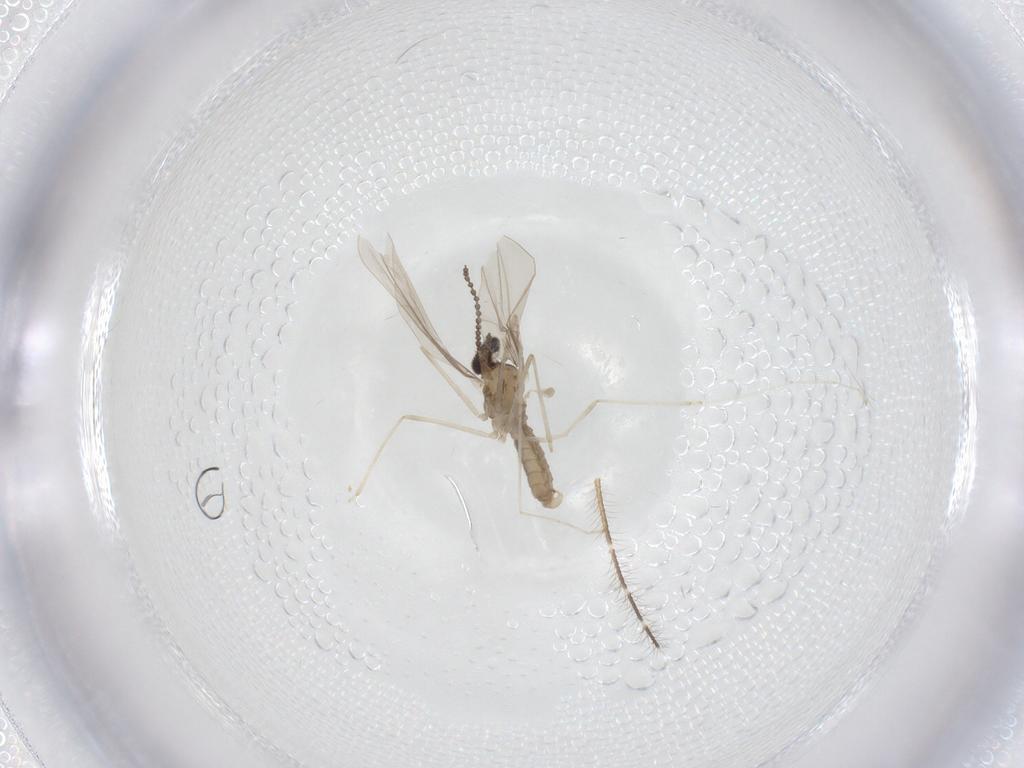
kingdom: Animalia
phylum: Arthropoda
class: Insecta
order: Diptera
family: Cecidomyiidae
